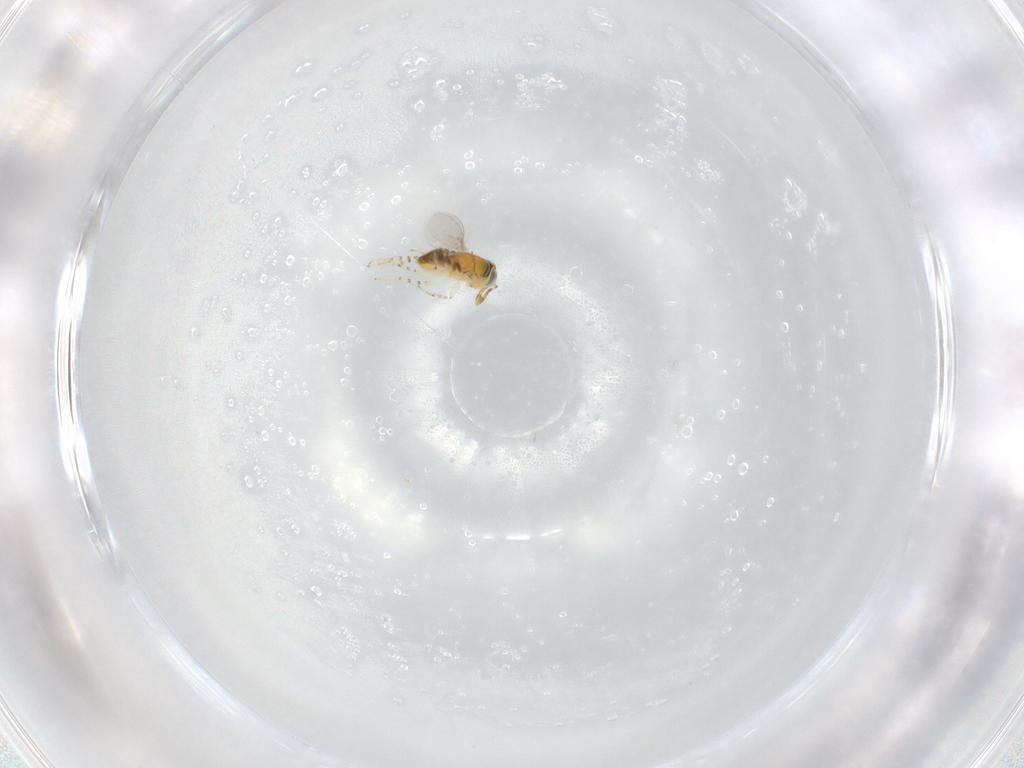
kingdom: Animalia
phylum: Arthropoda
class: Insecta
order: Hymenoptera
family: Encyrtidae
